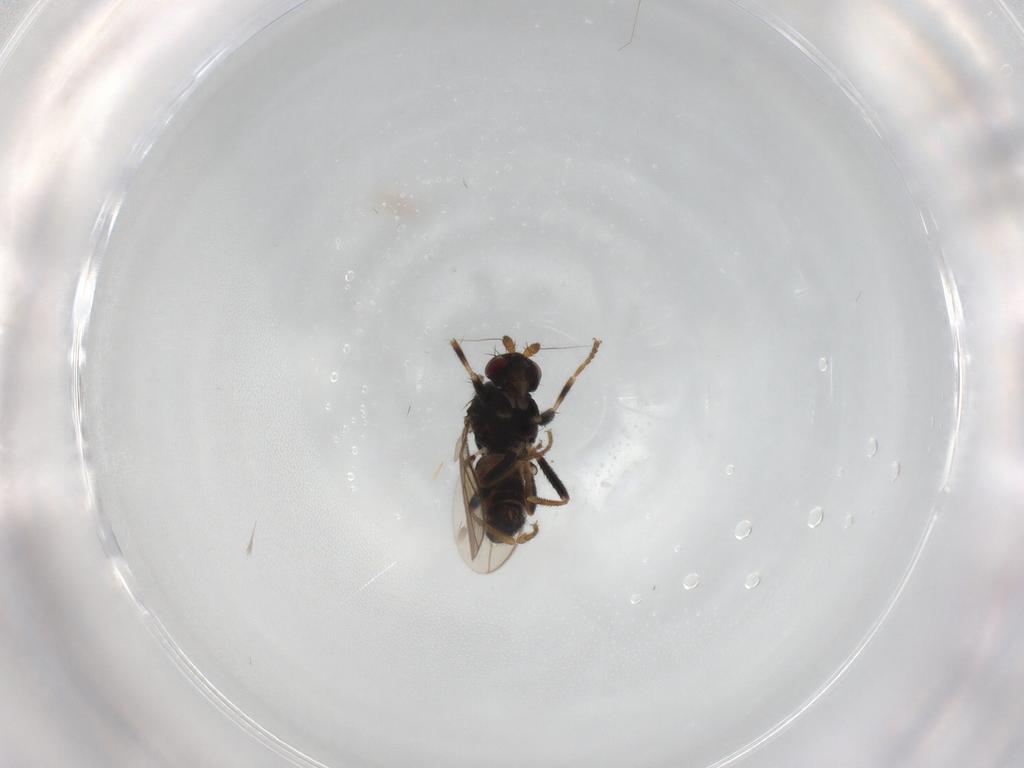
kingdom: Animalia
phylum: Arthropoda
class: Insecta
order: Diptera
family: Sphaeroceridae
